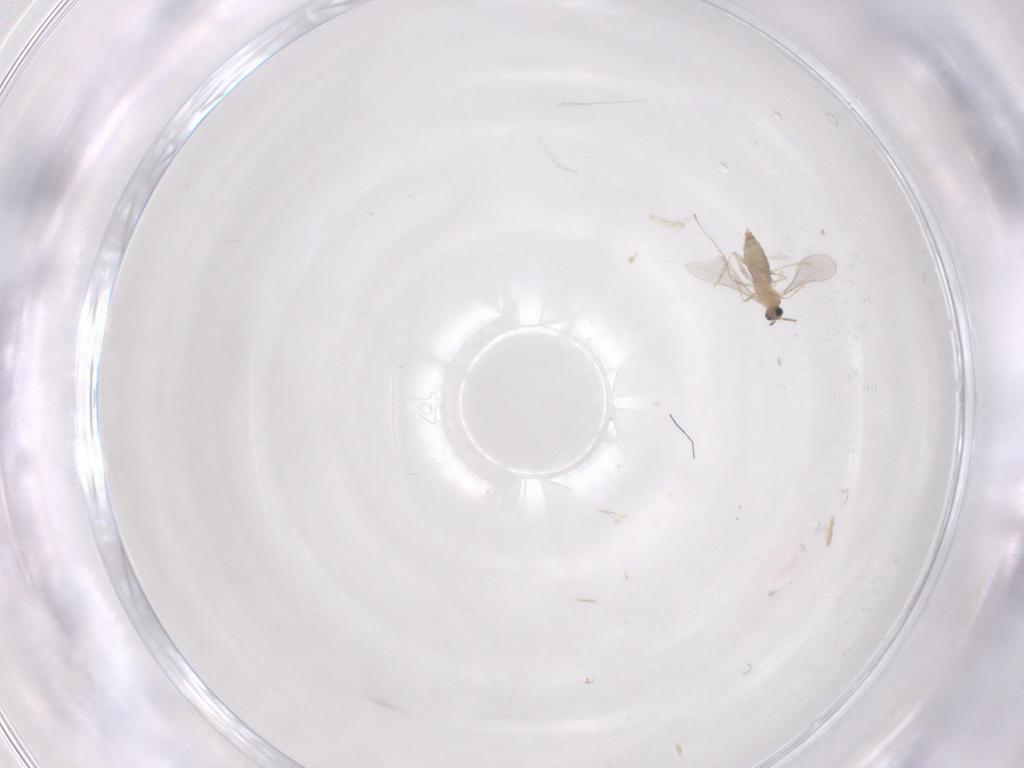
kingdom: Animalia
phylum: Arthropoda
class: Insecta
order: Diptera
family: Cecidomyiidae
